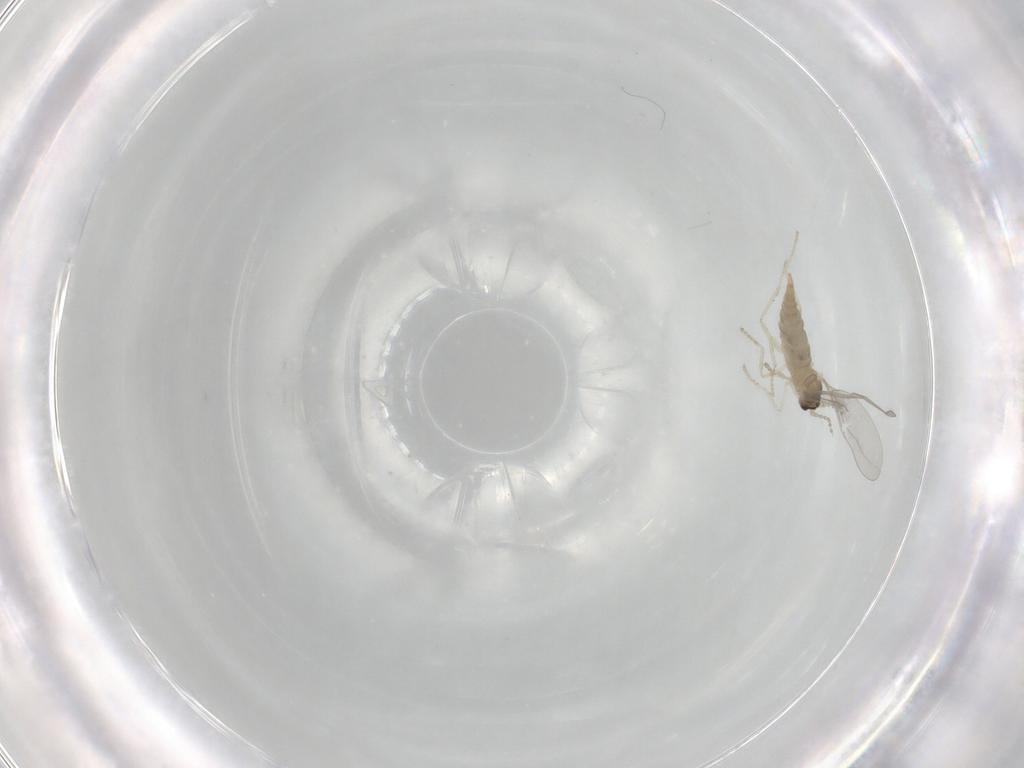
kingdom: Animalia
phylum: Arthropoda
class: Insecta
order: Diptera
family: Cecidomyiidae
